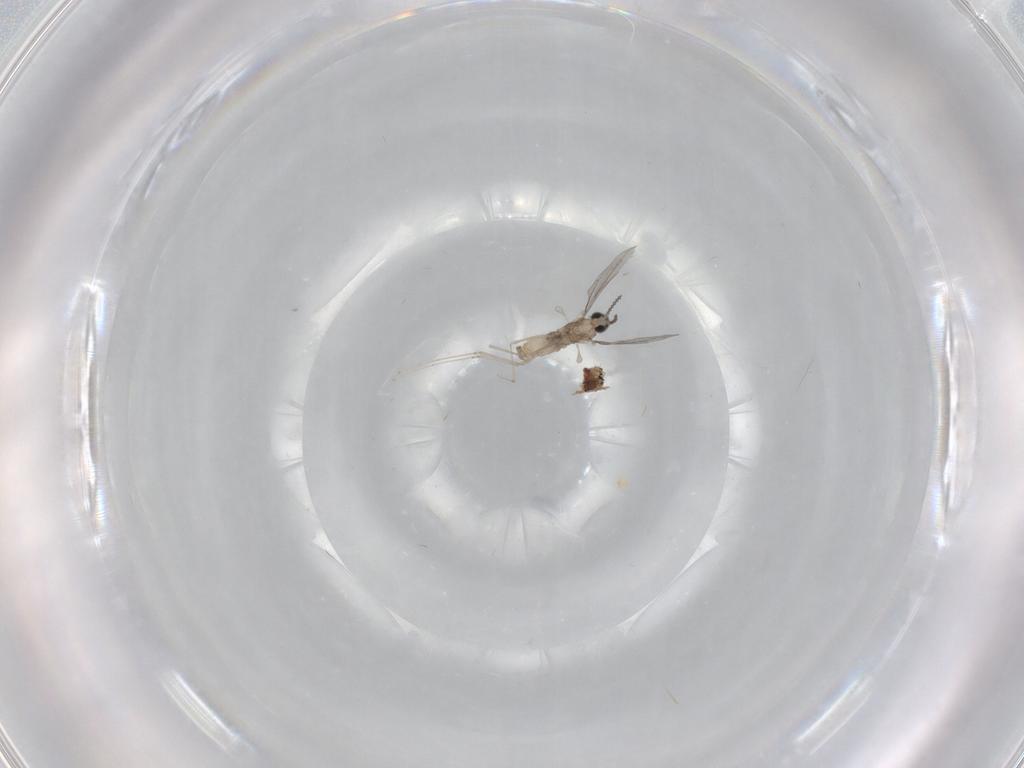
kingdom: Animalia
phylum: Arthropoda
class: Insecta
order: Diptera
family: Cecidomyiidae
